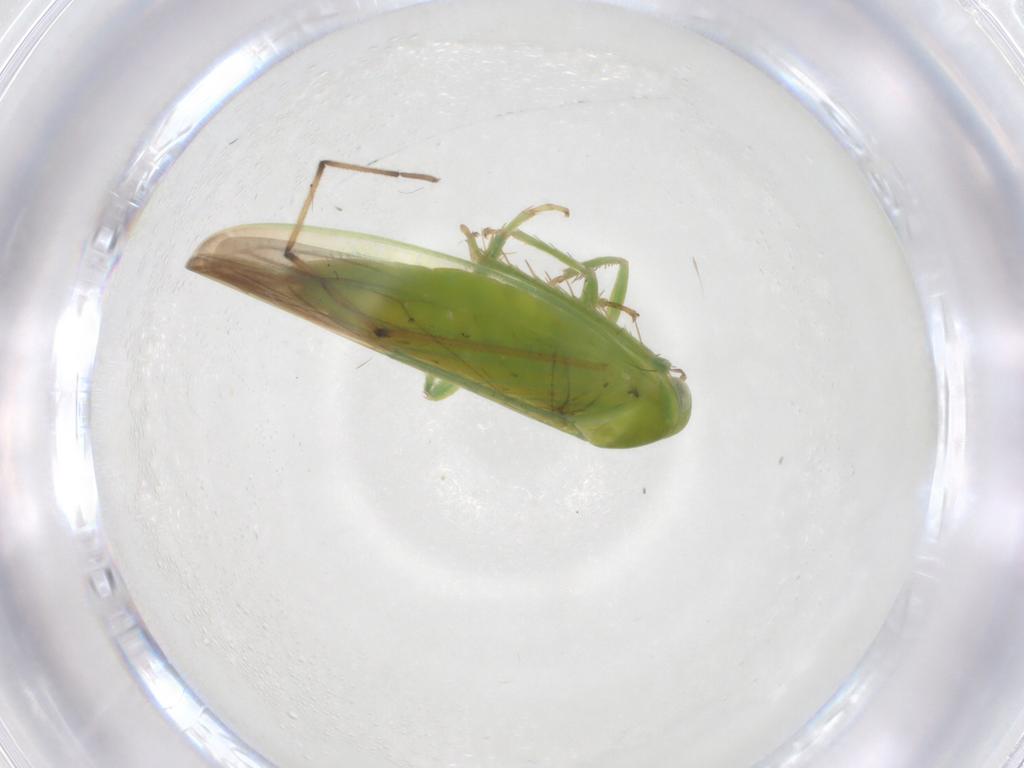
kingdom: Animalia
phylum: Arthropoda
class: Insecta
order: Hemiptera
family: Cicadellidae
